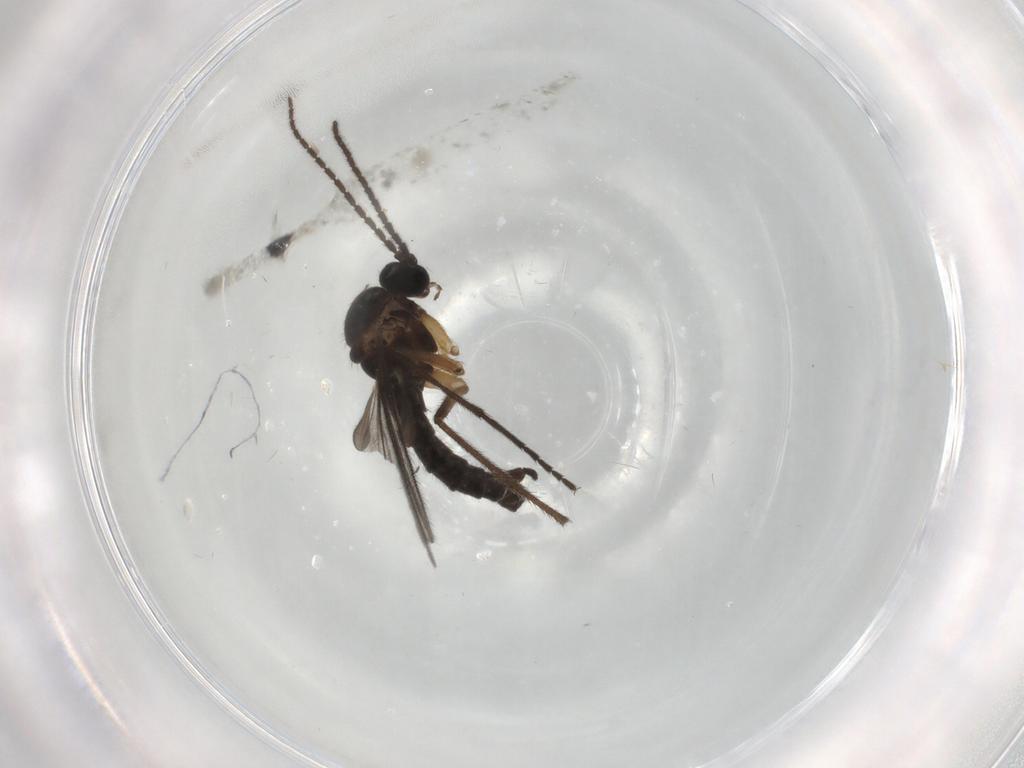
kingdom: Animalia
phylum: Arthropoda
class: Insecta
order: Diptera
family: Sciaridae
